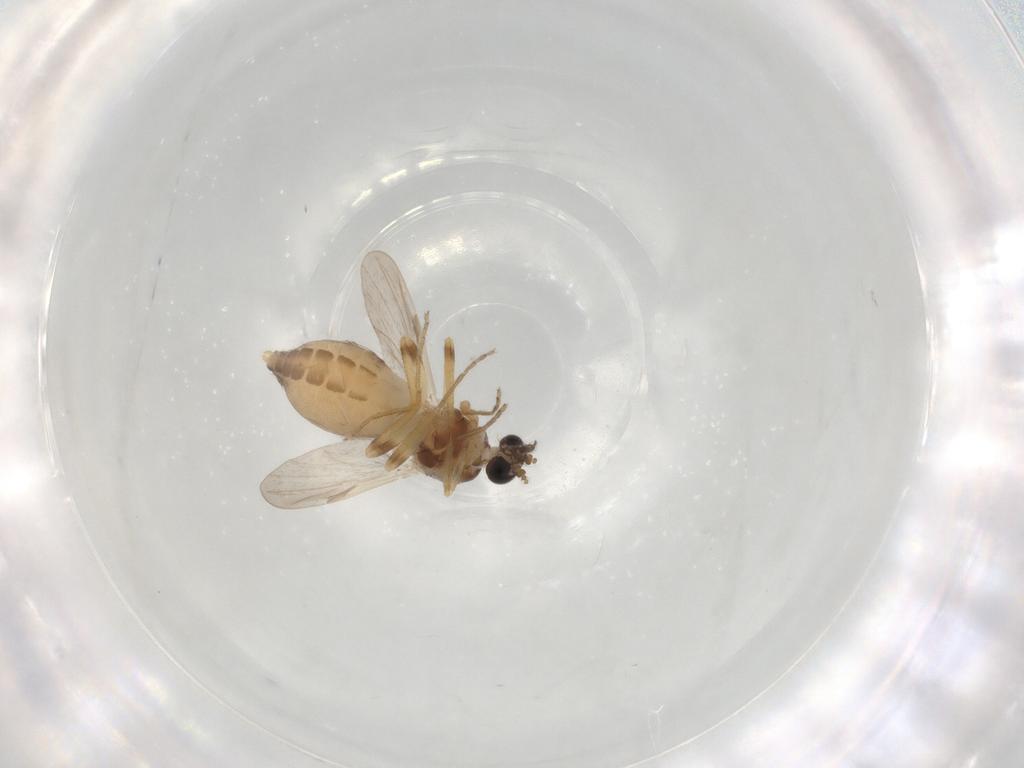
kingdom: Animalia
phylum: Arthropoda
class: Insecta
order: Diptera
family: Ceratopogonidae
